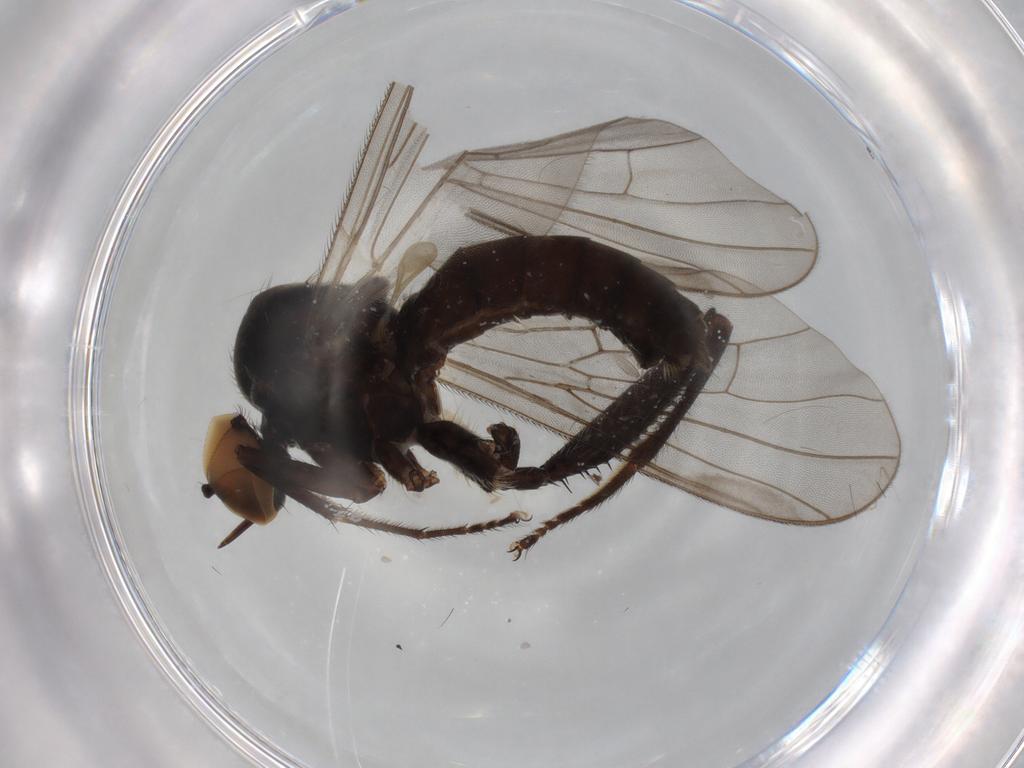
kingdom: Animalia
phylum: Arthropoda
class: Insecta
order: Diptera
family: Hybotidae
